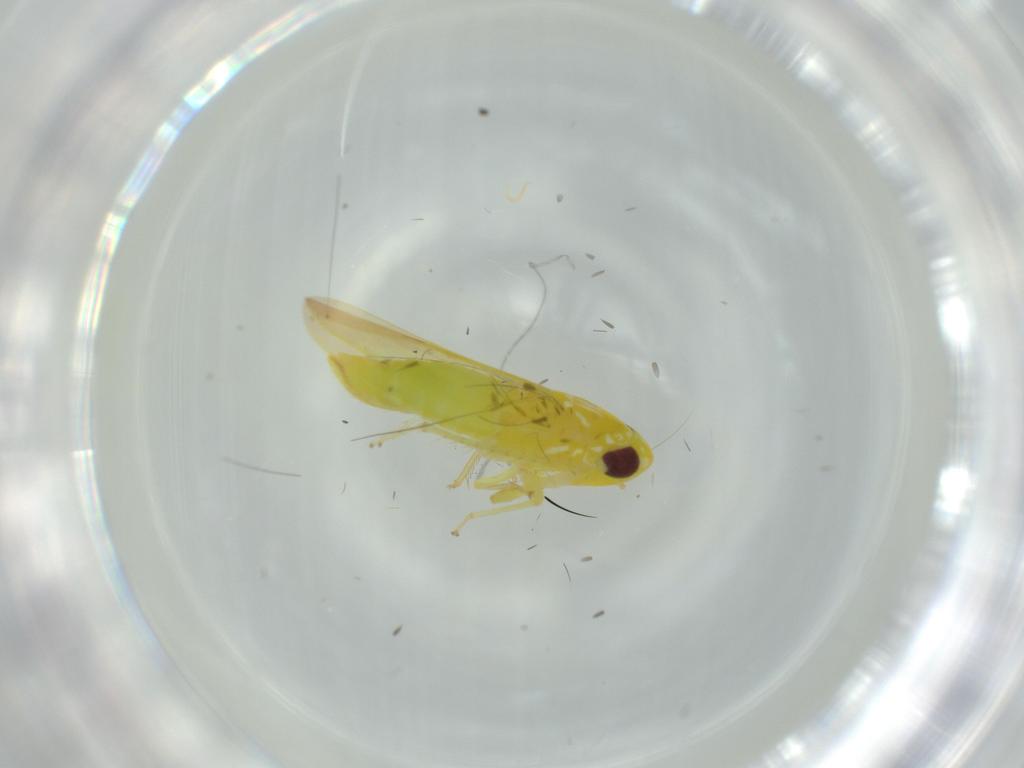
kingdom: Animalia
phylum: Arthropoda
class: Insecta
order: Hemiptera
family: Cicadellidae
